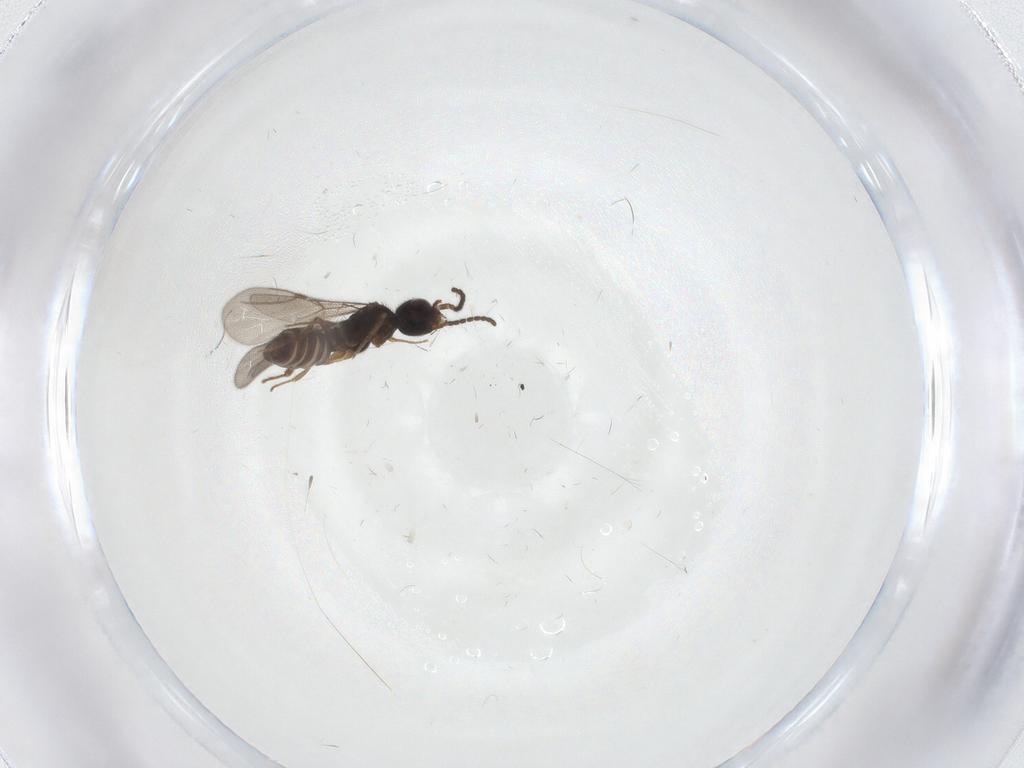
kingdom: Animalia
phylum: Arthropoda
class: Insecta
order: Hymenoptera
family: Bethylidae
